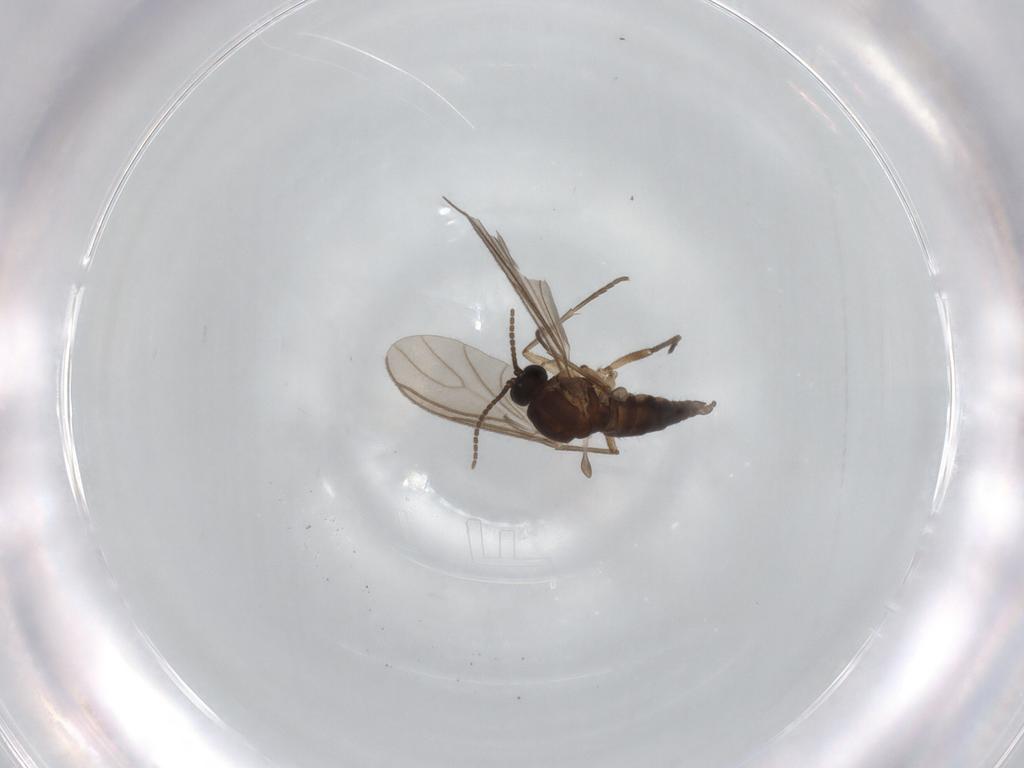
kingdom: Animalia
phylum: Arthropoda
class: Insecta
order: Diptera
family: Sciaridae
